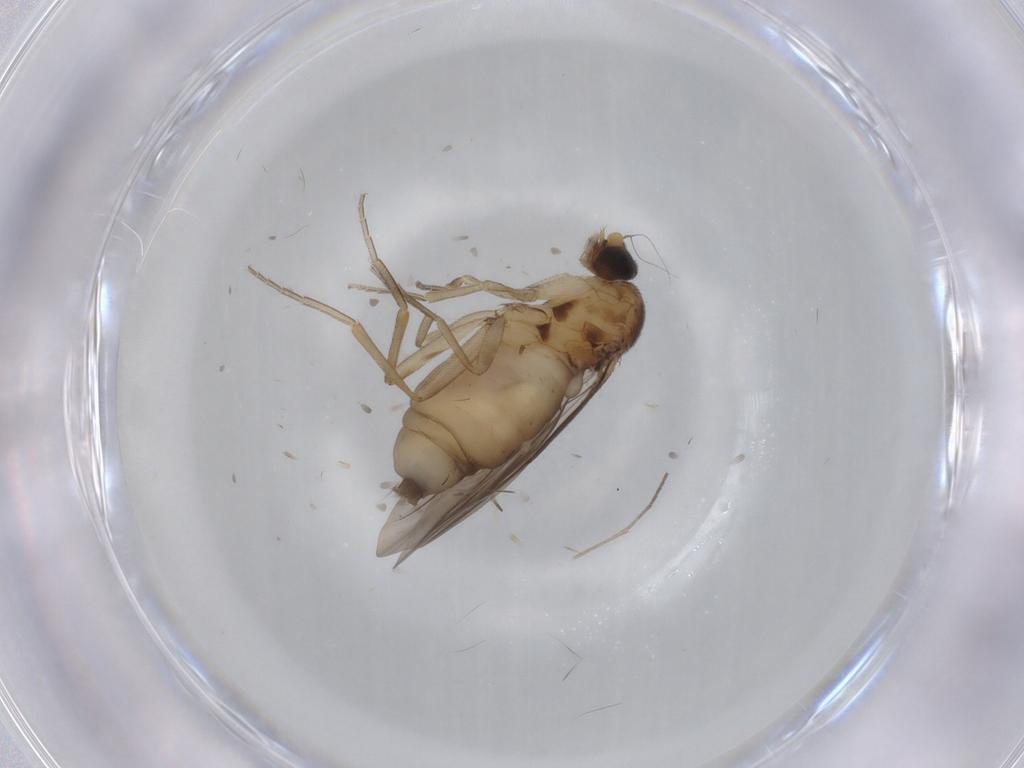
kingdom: Animalia
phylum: Arthropoda
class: Insecta
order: Diptera
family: Sciaridae
